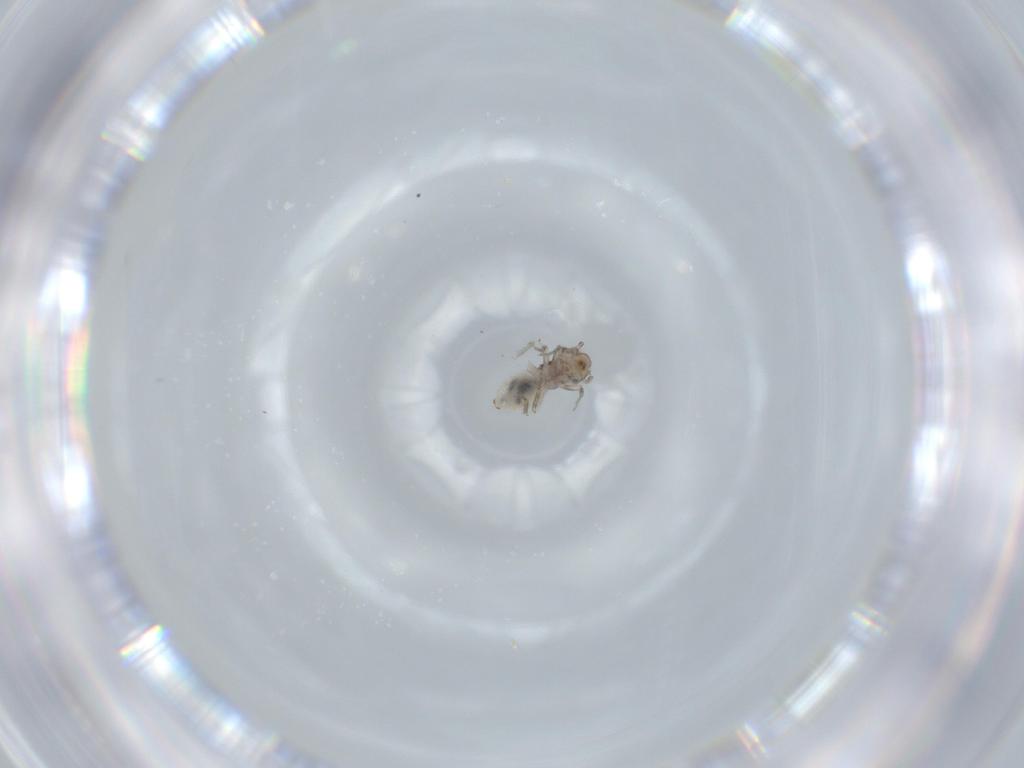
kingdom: Animalia
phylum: Arthropoda
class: Insecta
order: Psocodea
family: Lepidopsocidae
